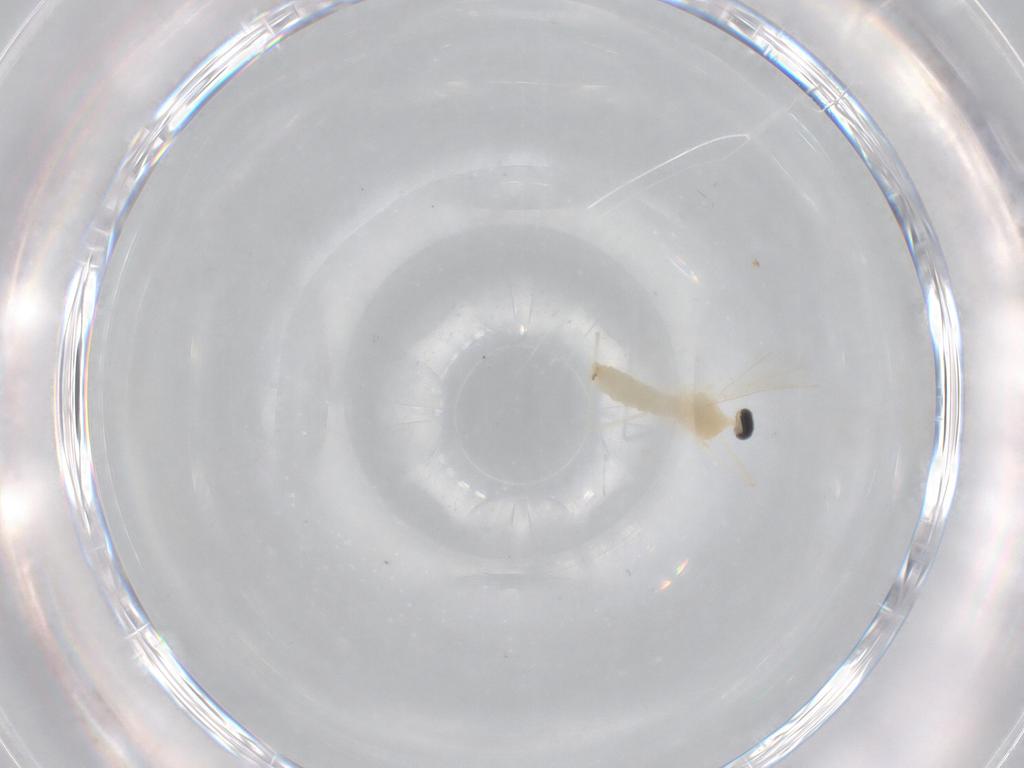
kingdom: Animalia
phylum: Arthropoda
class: Insecta
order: Diptera
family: Cecidomyiidae
